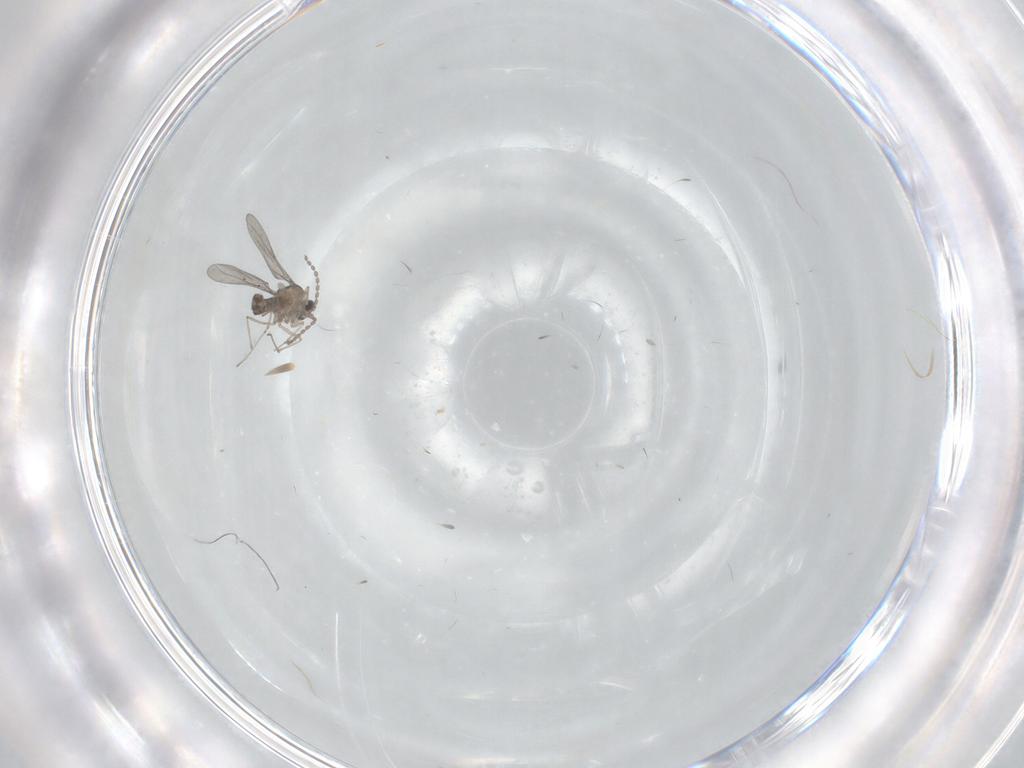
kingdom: Animalia
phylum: Arthropoda
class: Insecta
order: Diptera
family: Cecidomyiidae
